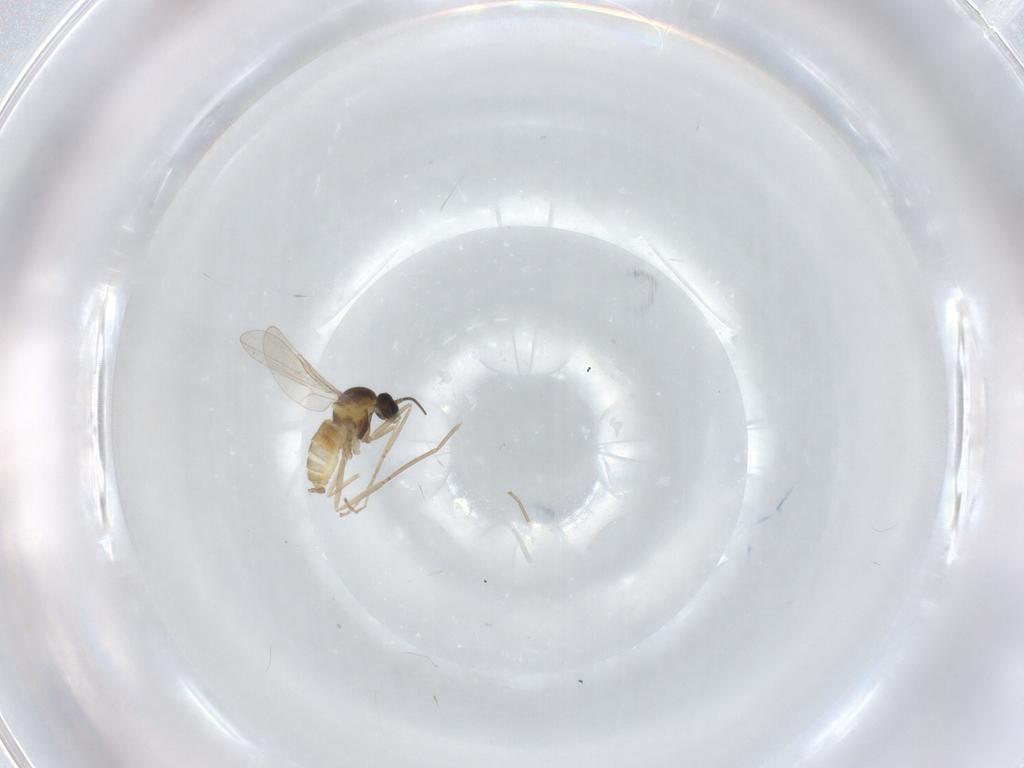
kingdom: Animalia
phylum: Arthropoda
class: Insecta
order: Diptera
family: Cecidomyiidae
